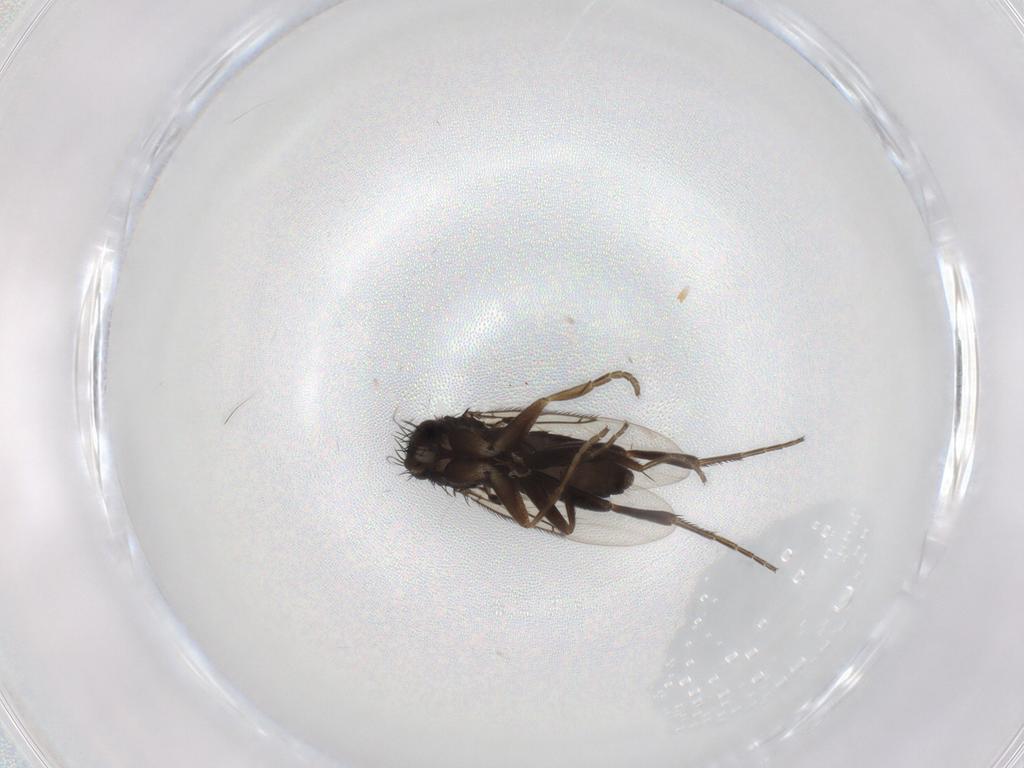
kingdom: Animalia
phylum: Arthropoda
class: Insecta
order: Diptera
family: Phoridae
